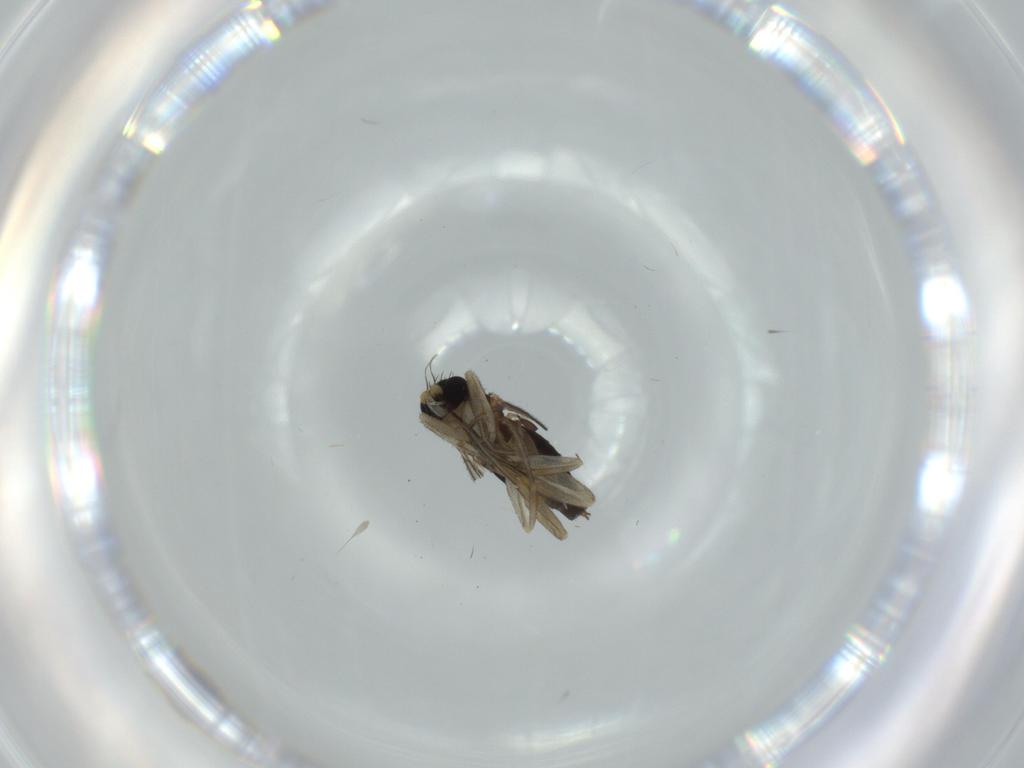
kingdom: Animalia
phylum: Arthropoda
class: Insecta
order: Diptera
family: Phoridae
